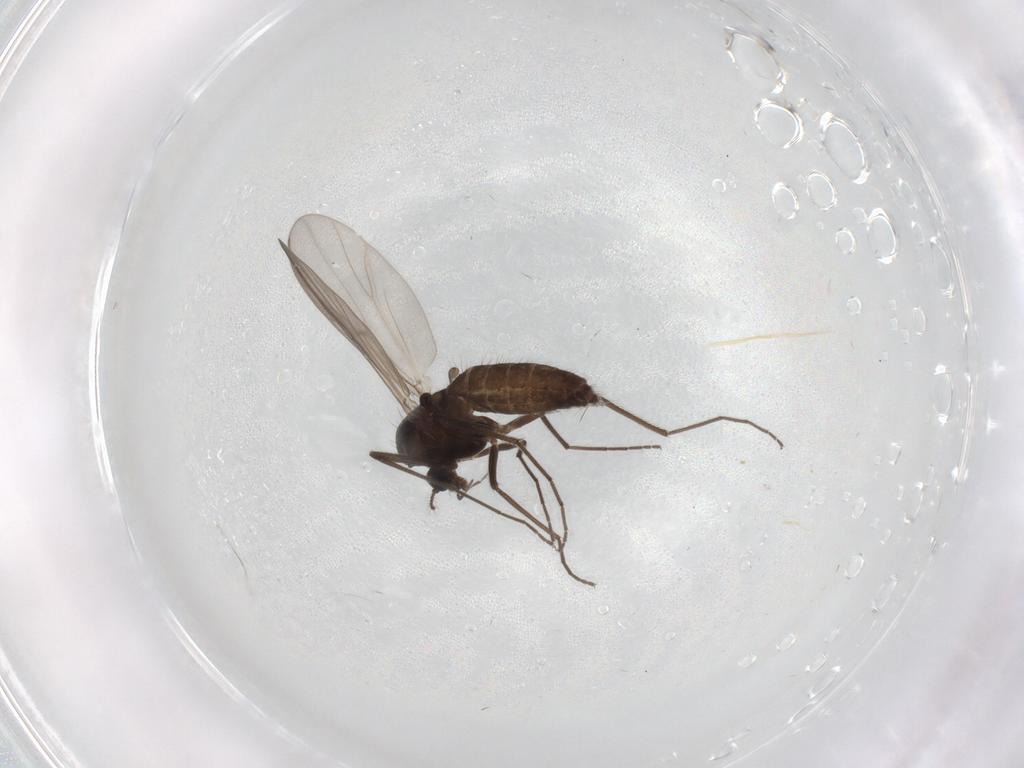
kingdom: Animalia
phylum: Arthropoda
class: Insecta
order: Diptera
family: Chironomidae
